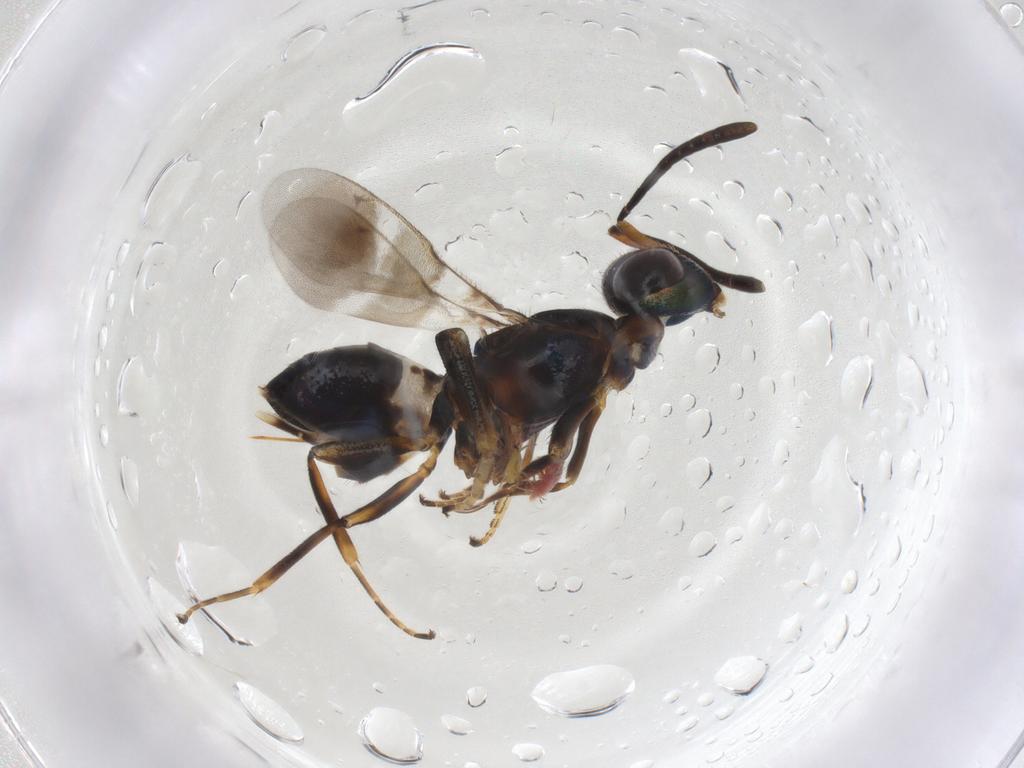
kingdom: Animalia
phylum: Arthropoda
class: Insecta
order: Hymenoptera
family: Eupelmidae
